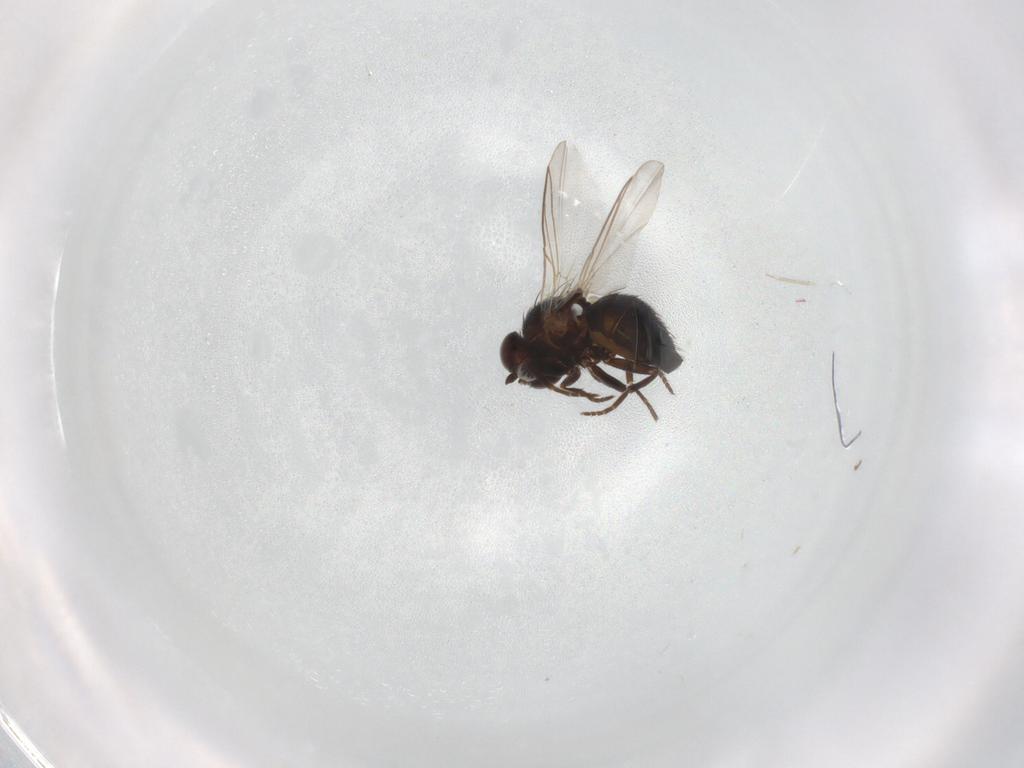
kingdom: Animalia
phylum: Arthropoda
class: Insecta
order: Diptera
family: Agromyzidae
